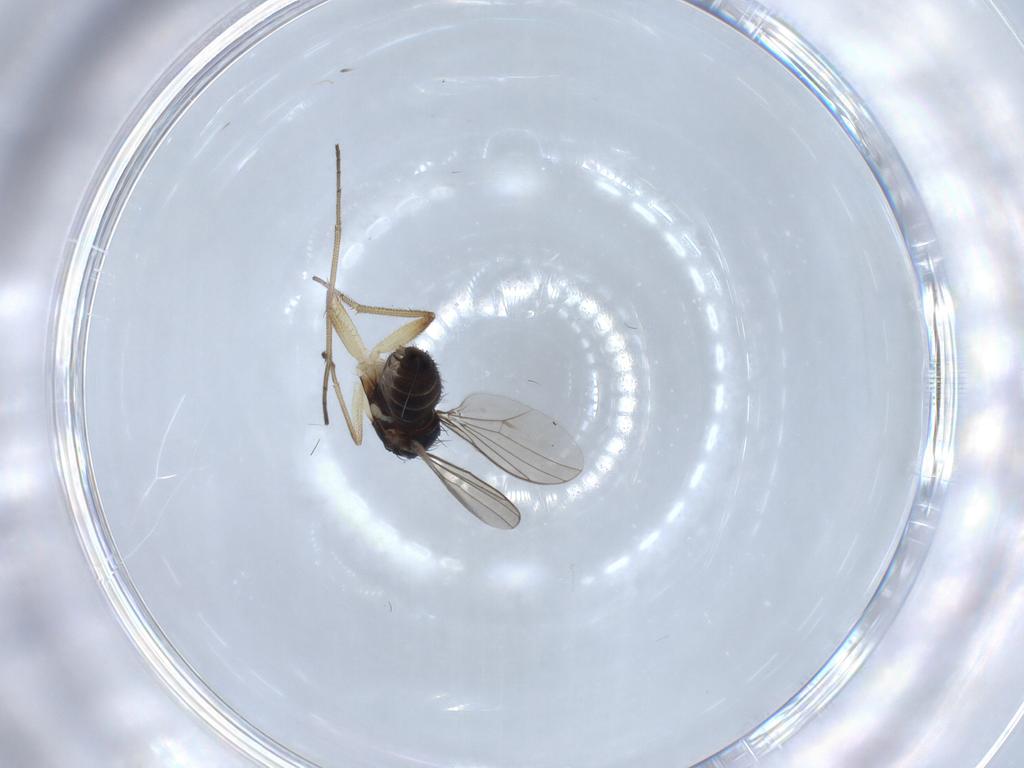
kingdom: Animalia
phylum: Arthropoda
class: Insecta
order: Diptera
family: Dolichopodidae
